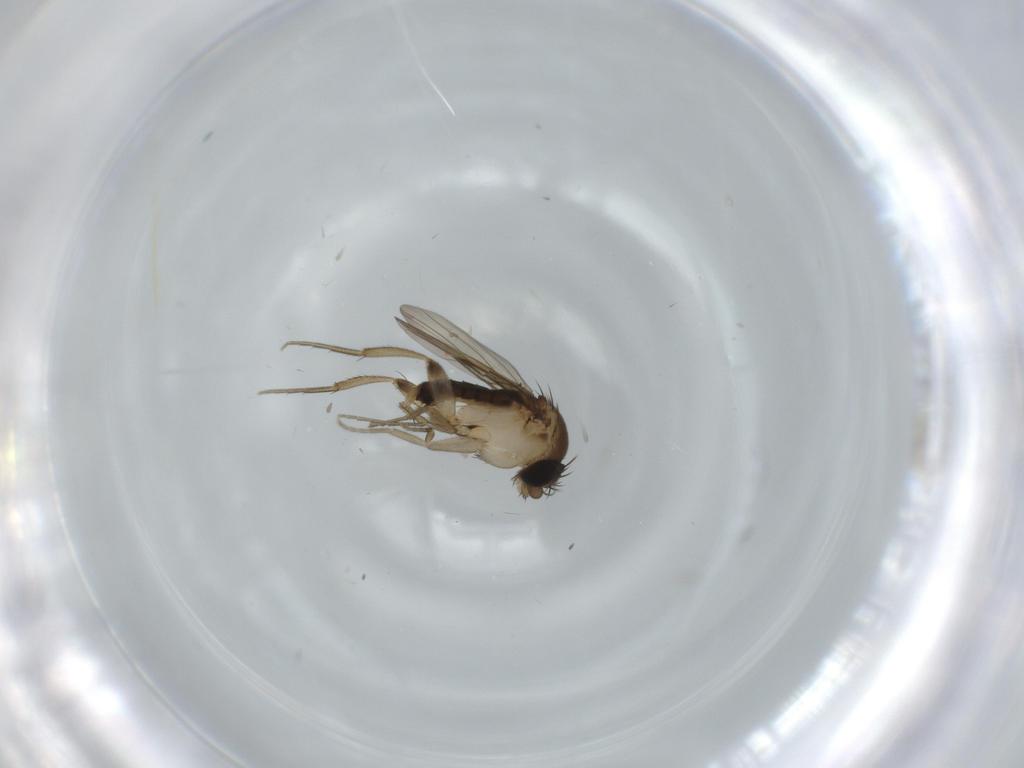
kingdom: Animalia
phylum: Arthropoda
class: Insecta
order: Diptera
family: Phoridae
